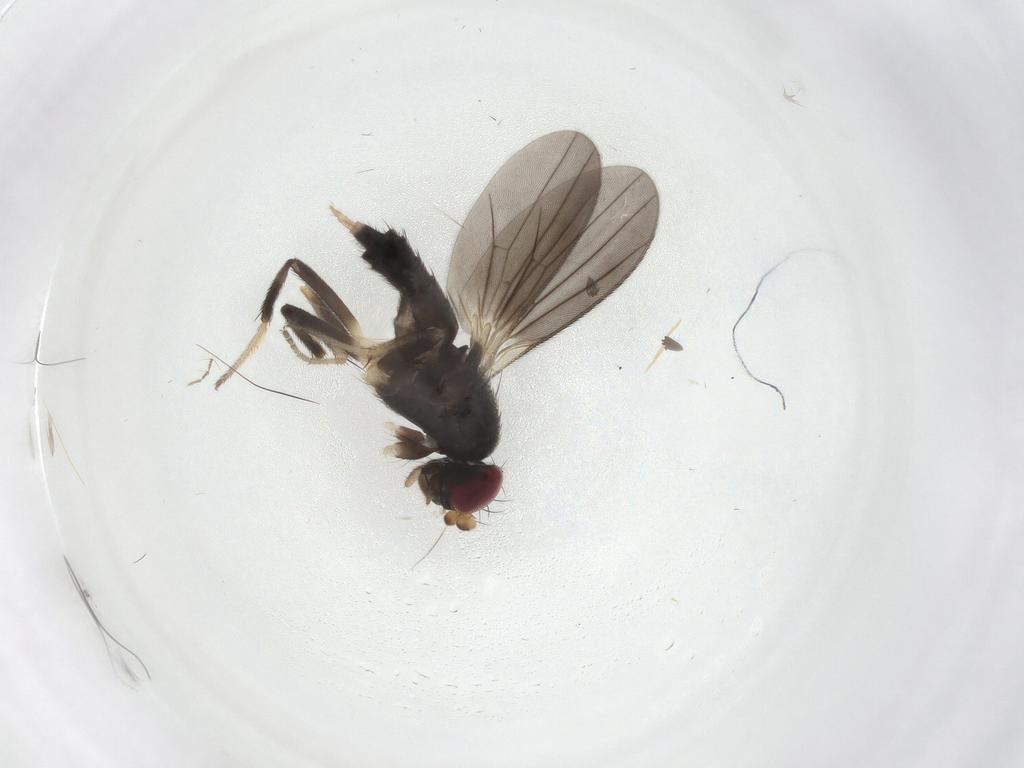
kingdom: Animalia
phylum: Arthropoda
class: Insecta
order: Diptera
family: Clusiidae
